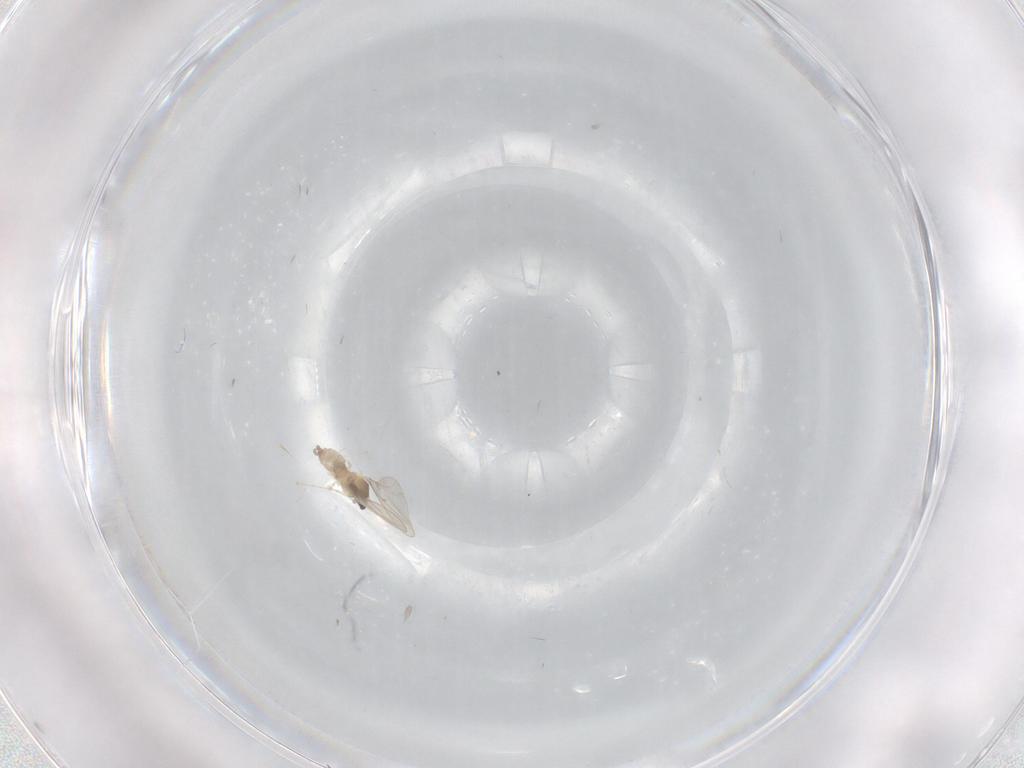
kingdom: Animalia
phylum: Arthropoda
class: Insecta
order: Diptera
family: Cecidomyiidae
